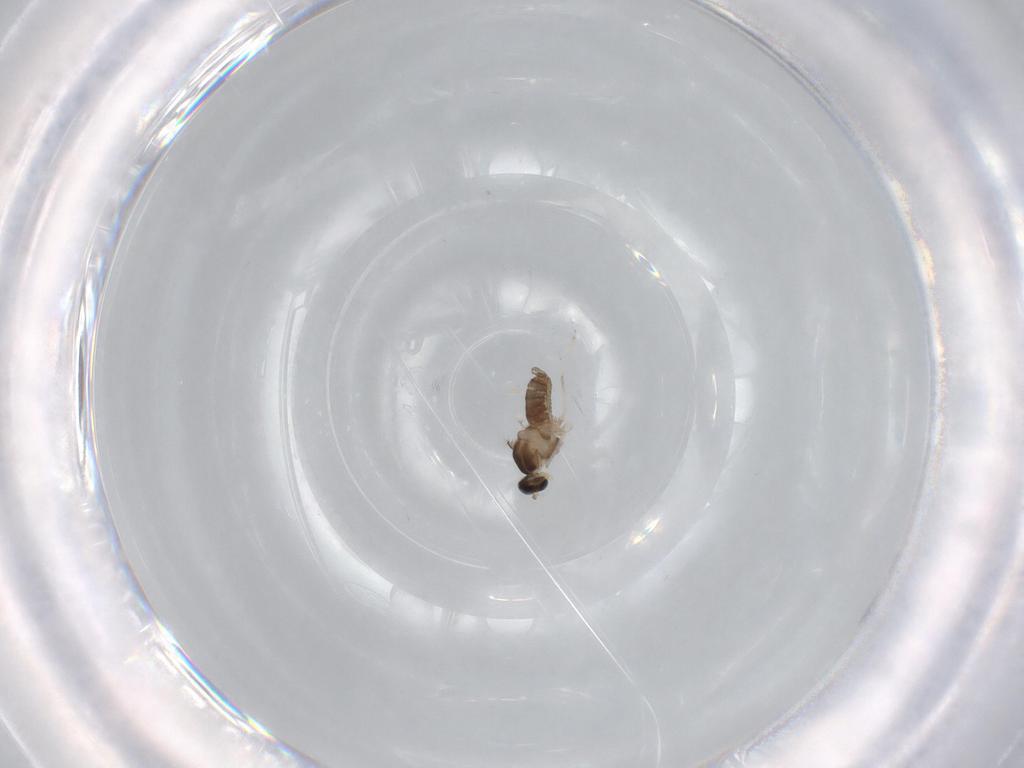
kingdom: Animalia
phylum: Arthropoda
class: Insecta
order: Diptera
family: Cecidomyiidae
